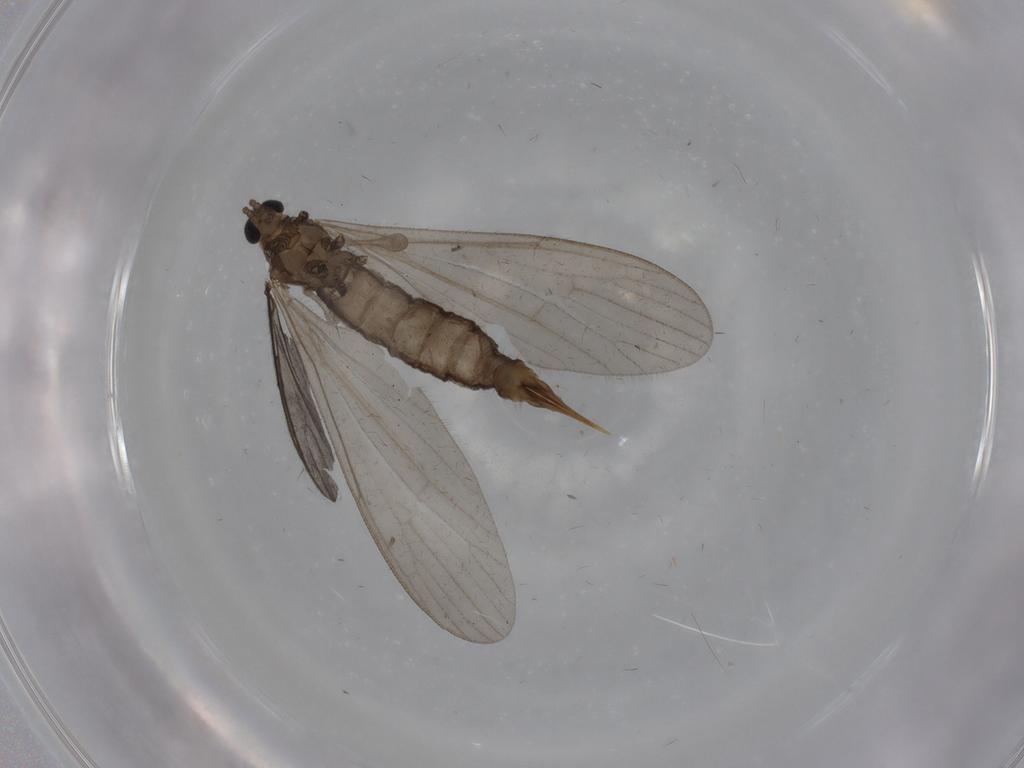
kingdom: Animalia
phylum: Arthropoda
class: Insecta
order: Diptera
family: Limoniidae
